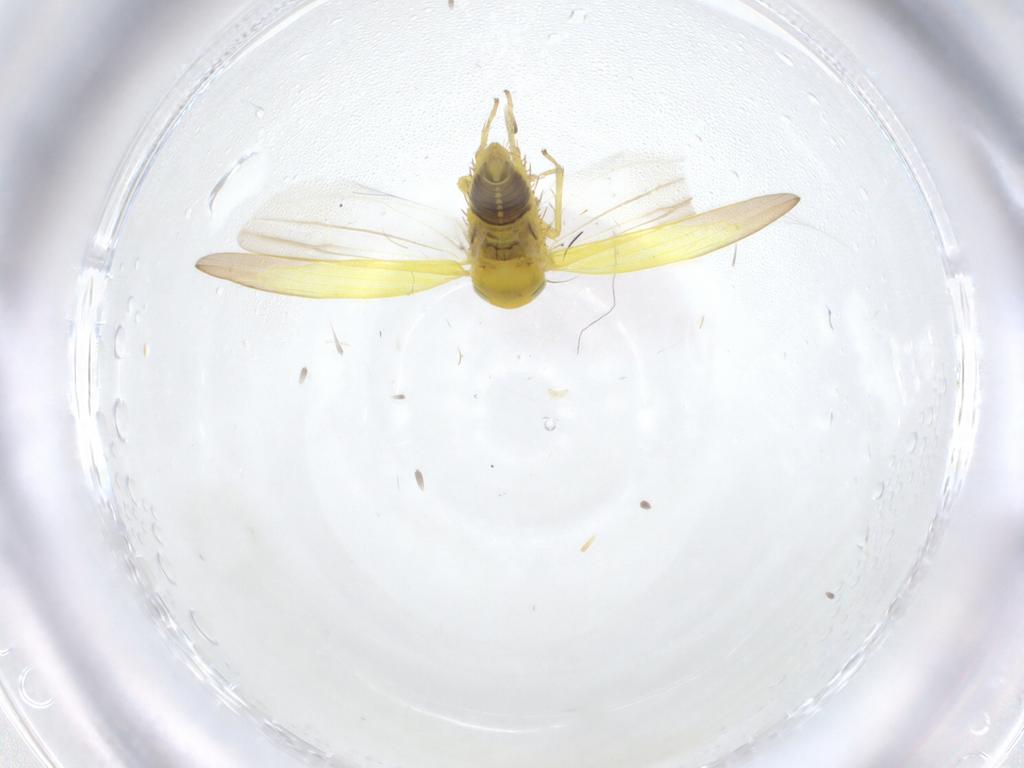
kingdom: Animalia
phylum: Arthropoda
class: Insecta
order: Hemiptera
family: Cicadellidae
